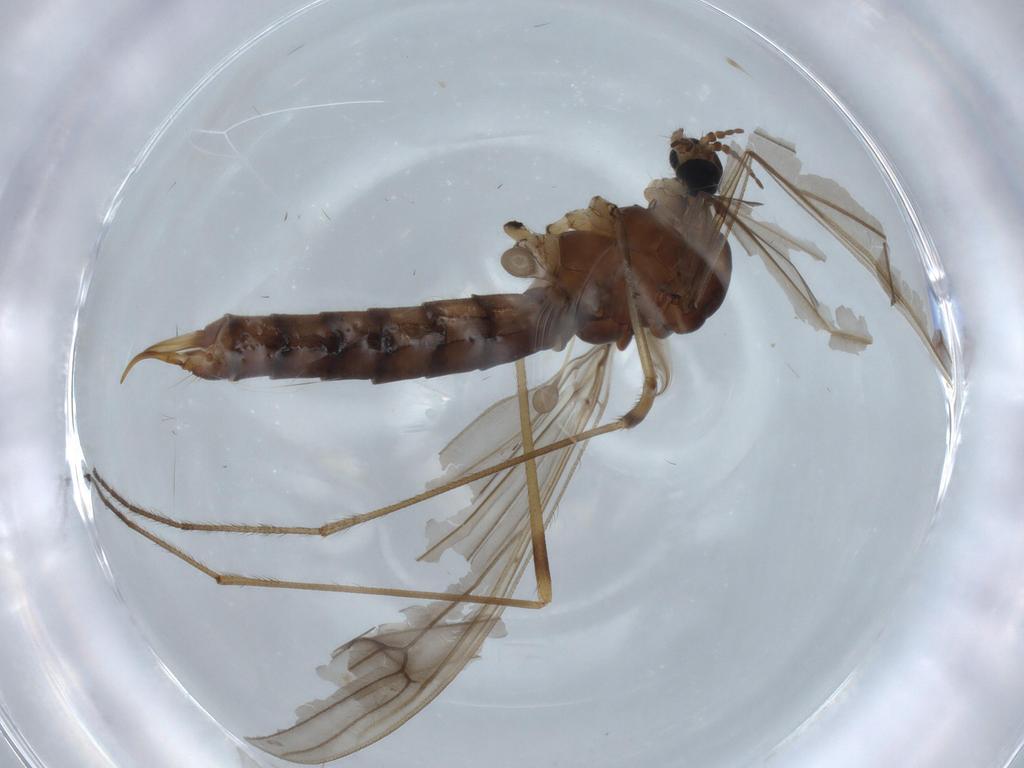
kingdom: Animalia
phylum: Arthropoda
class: Insecta
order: Diptera
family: Limoniidae
